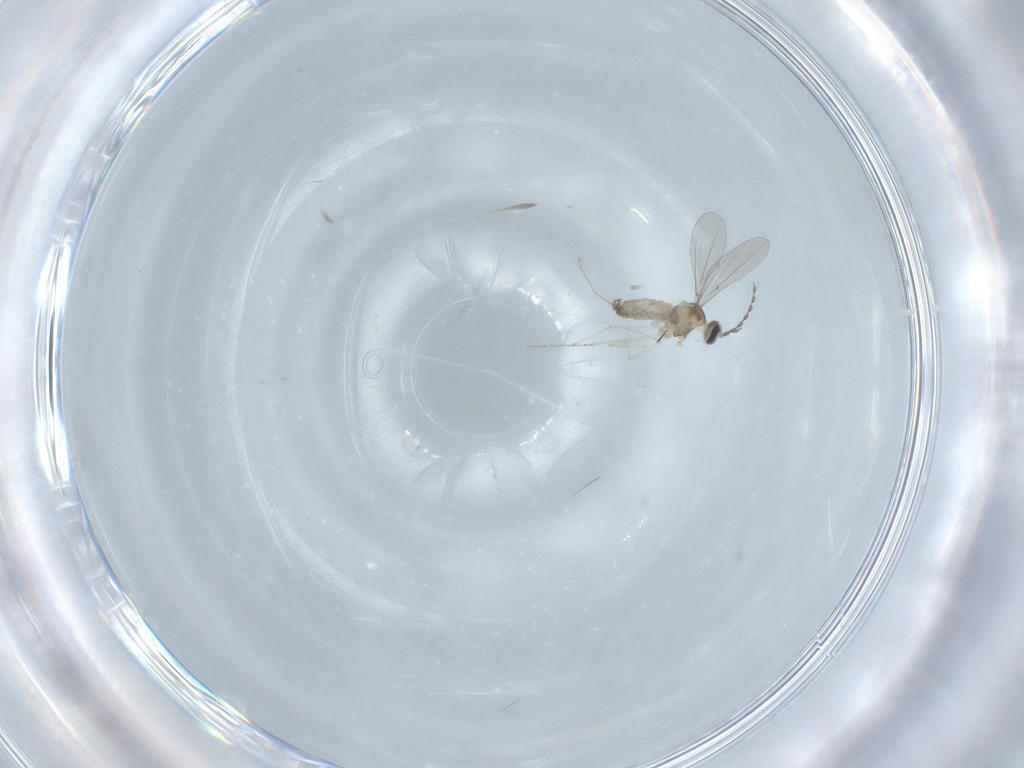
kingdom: Animalia
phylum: Arthropoda
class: Insecta
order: Diptera
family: Cecidomyiidae
